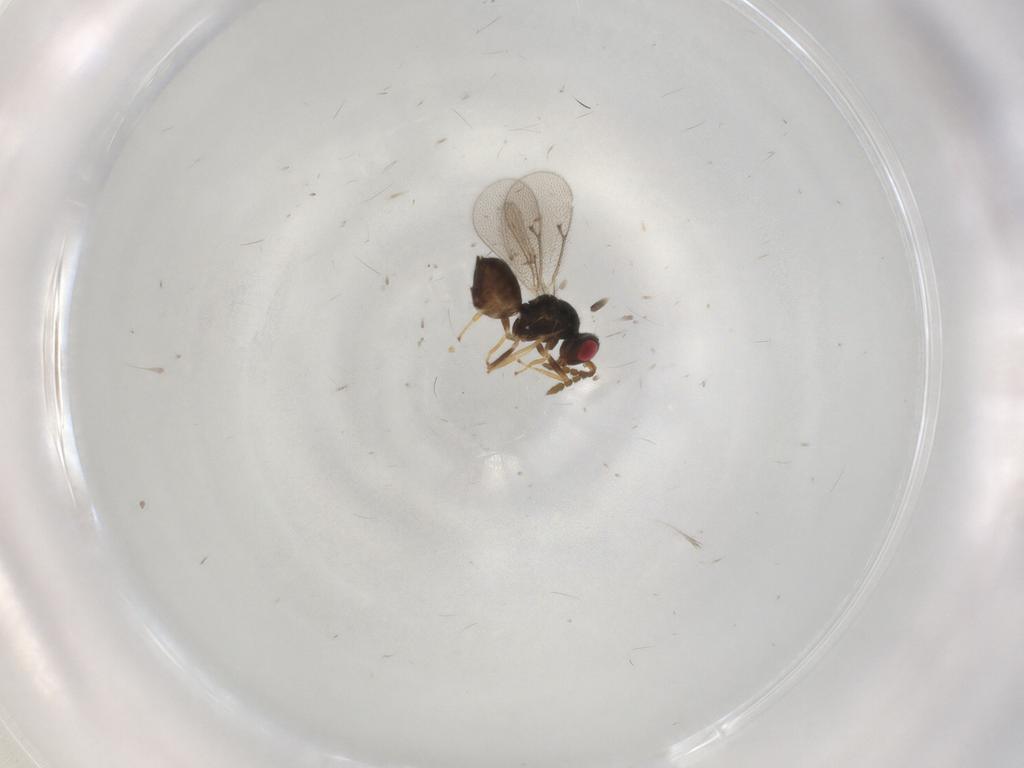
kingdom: Animalia
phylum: Arthropoda
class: Insecta
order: Hymenoptera
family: Eulophidae
